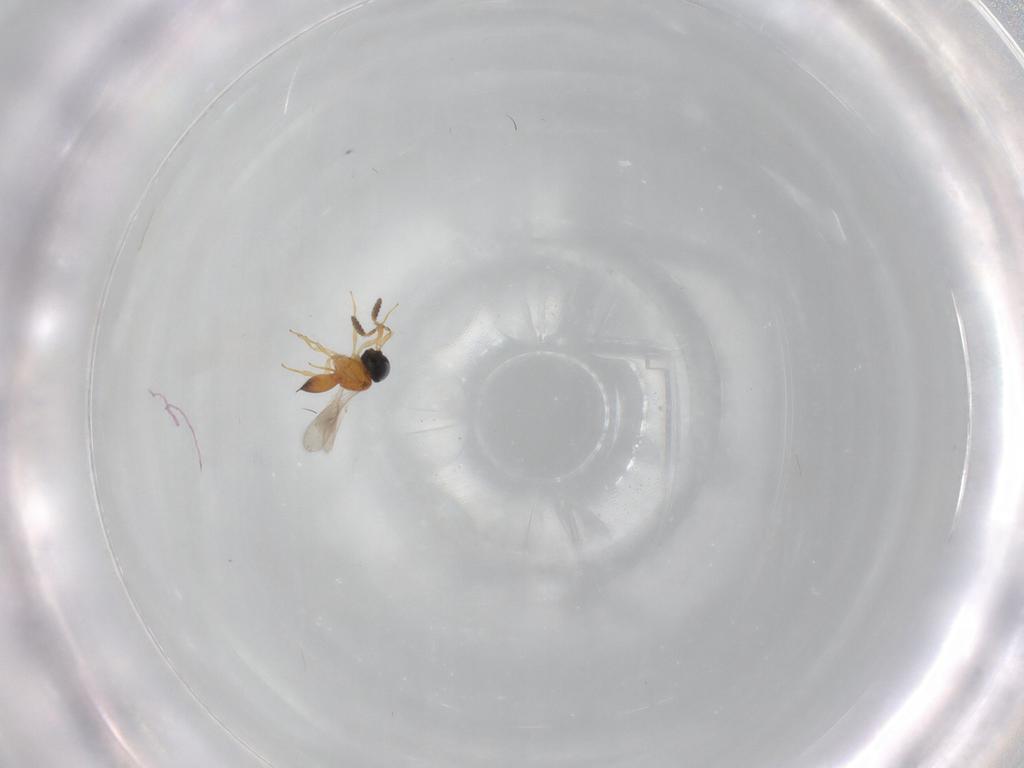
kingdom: Animalia
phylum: Arthropoda
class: Insecta
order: Hymenoptera
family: Scelionidae
